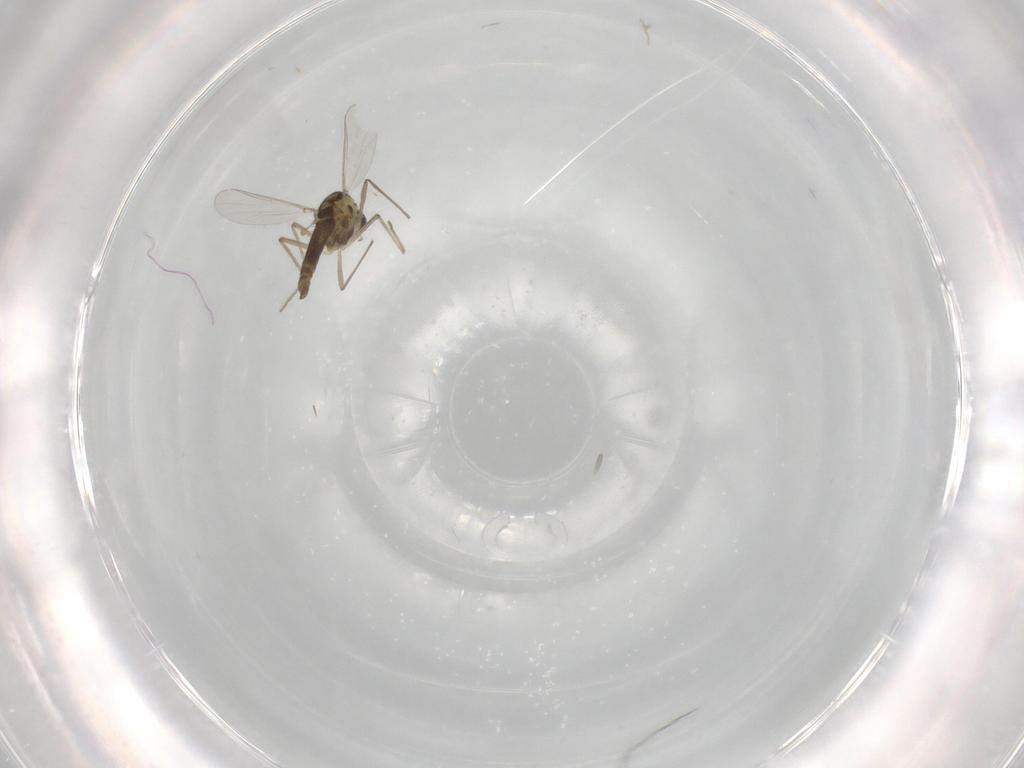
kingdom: Animalia
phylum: Arthropoda
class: Insecta
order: Diptera
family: Chironomidae
